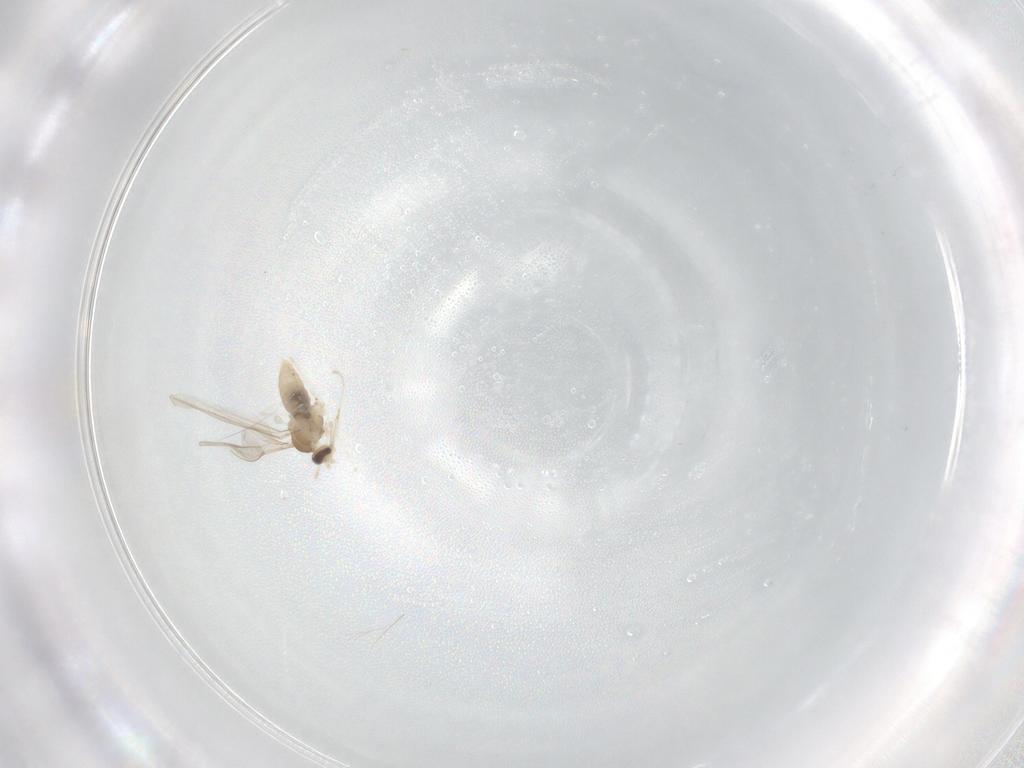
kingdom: Animalia
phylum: Arthropoda
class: Insecta
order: Diptera
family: Cecidomyiidae
